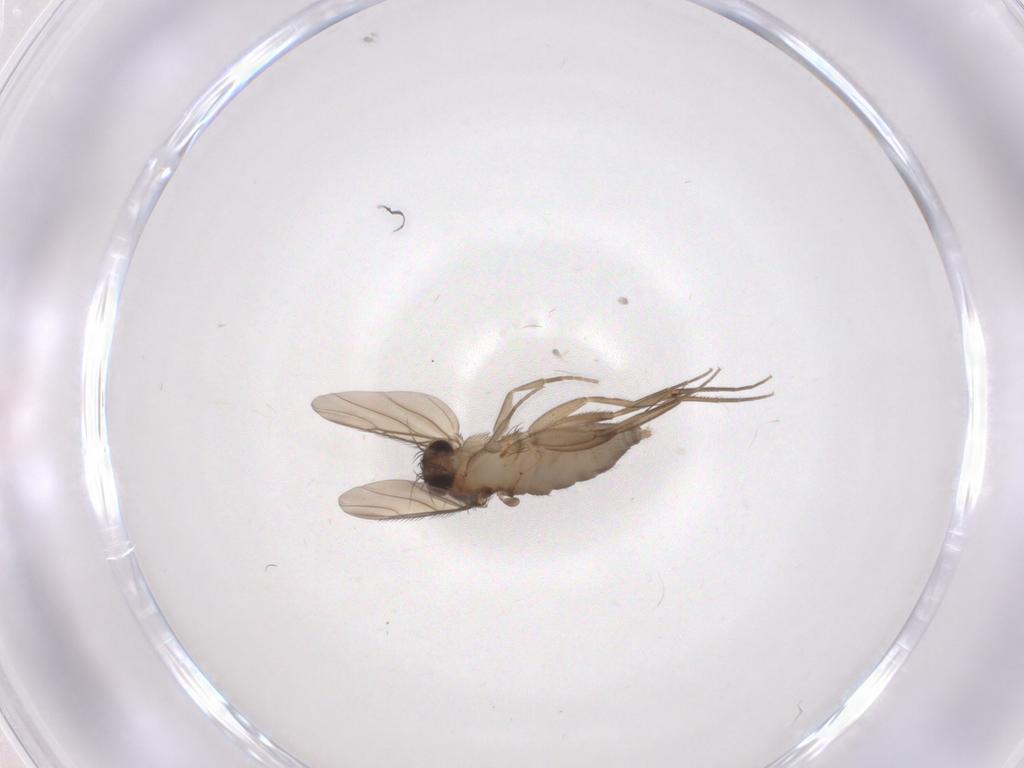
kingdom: Animalia
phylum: Arthropoda
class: Insecta
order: Diptera
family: Phoridae
